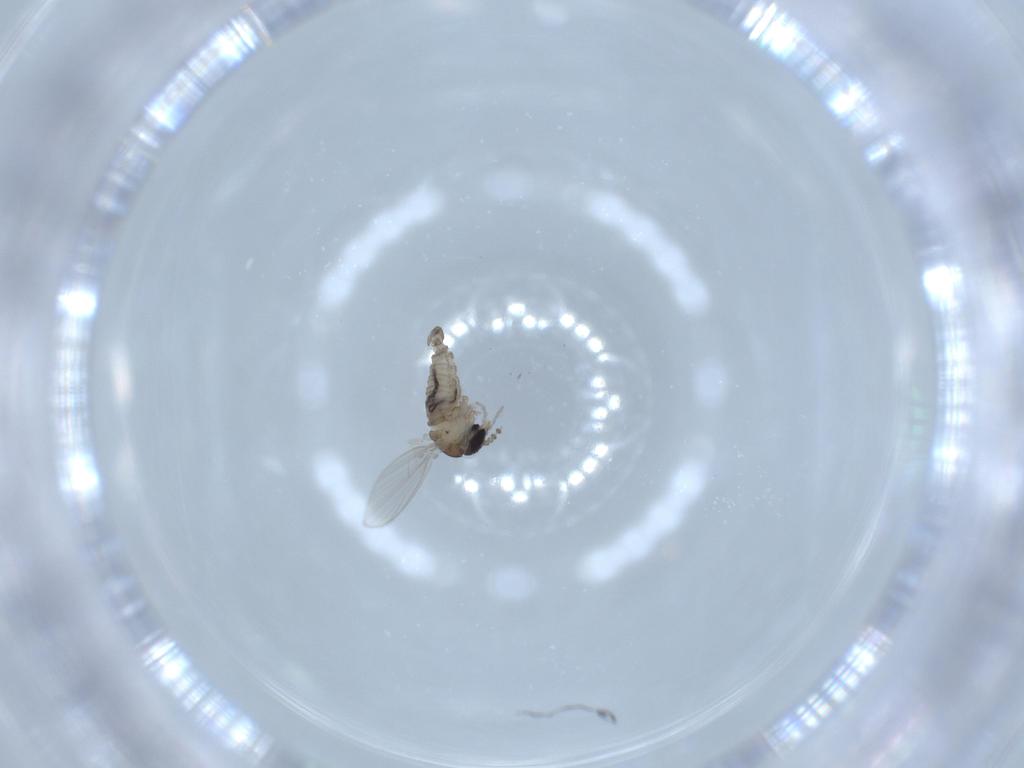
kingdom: Animalia
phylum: Arthropoda
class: Insecta
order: Diptera
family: Psychodidae
